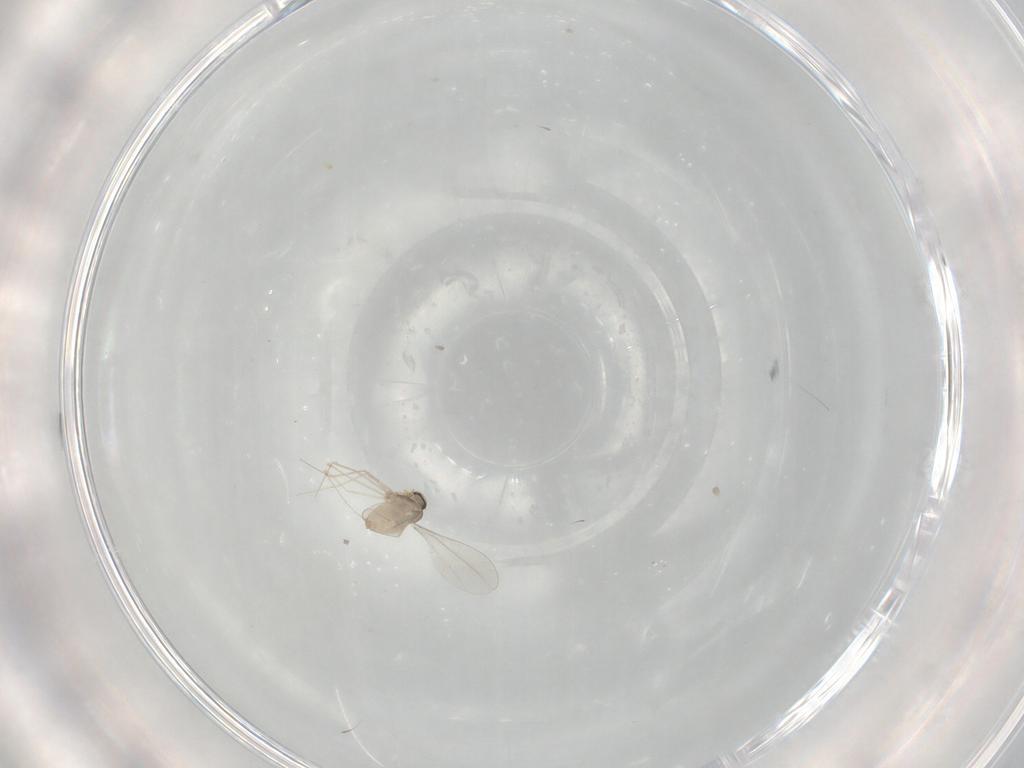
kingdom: Animalia
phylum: Arthropoda
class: Insecta
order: Diptera
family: Cecidomyiidae
